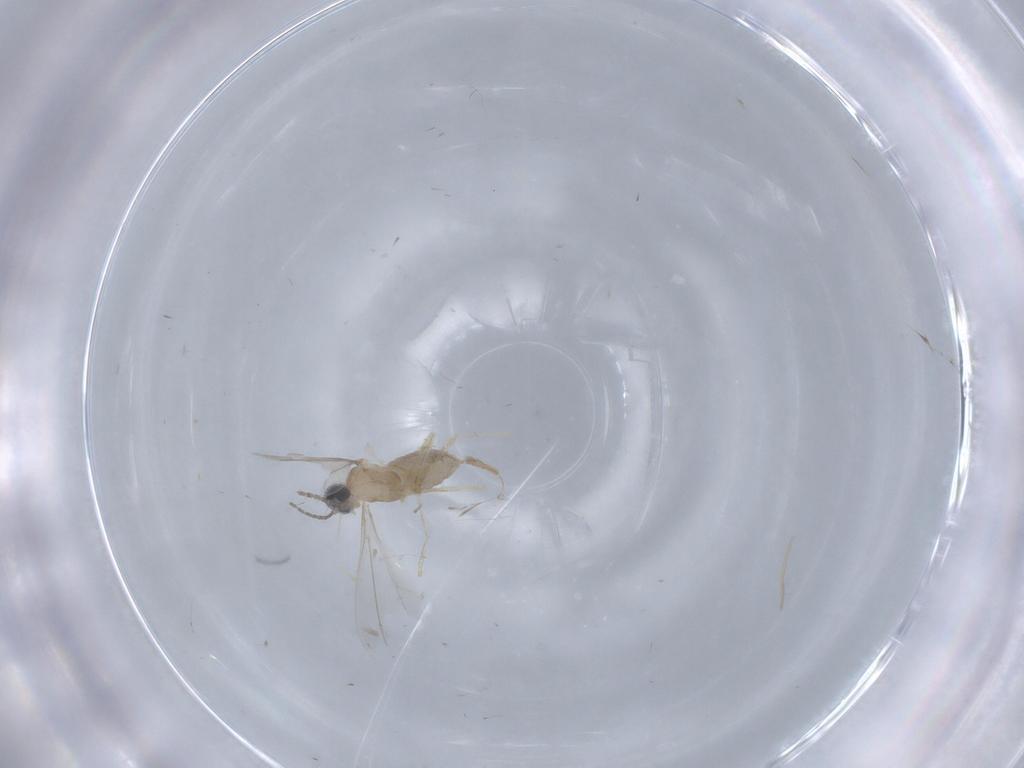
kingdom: Animalia
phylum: Arthropoda
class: Insecta
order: Diptera
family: Cecidomyiidae
